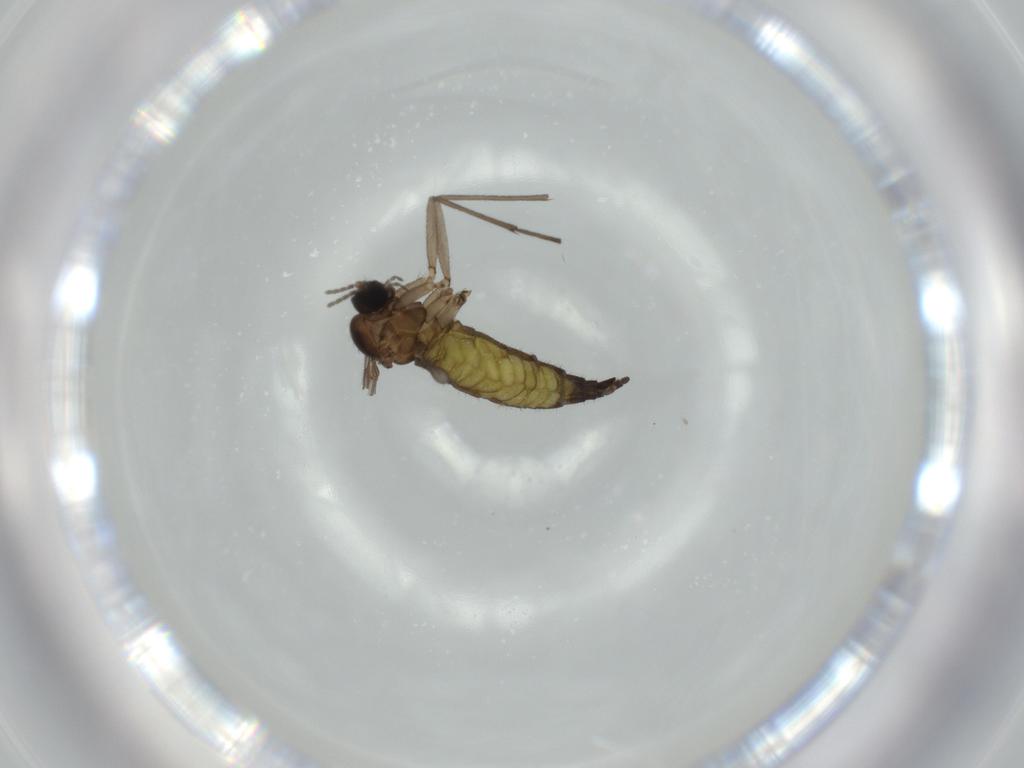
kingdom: Animalia
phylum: Arthropoda
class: Insecta
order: Diptera
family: Sciaridae
